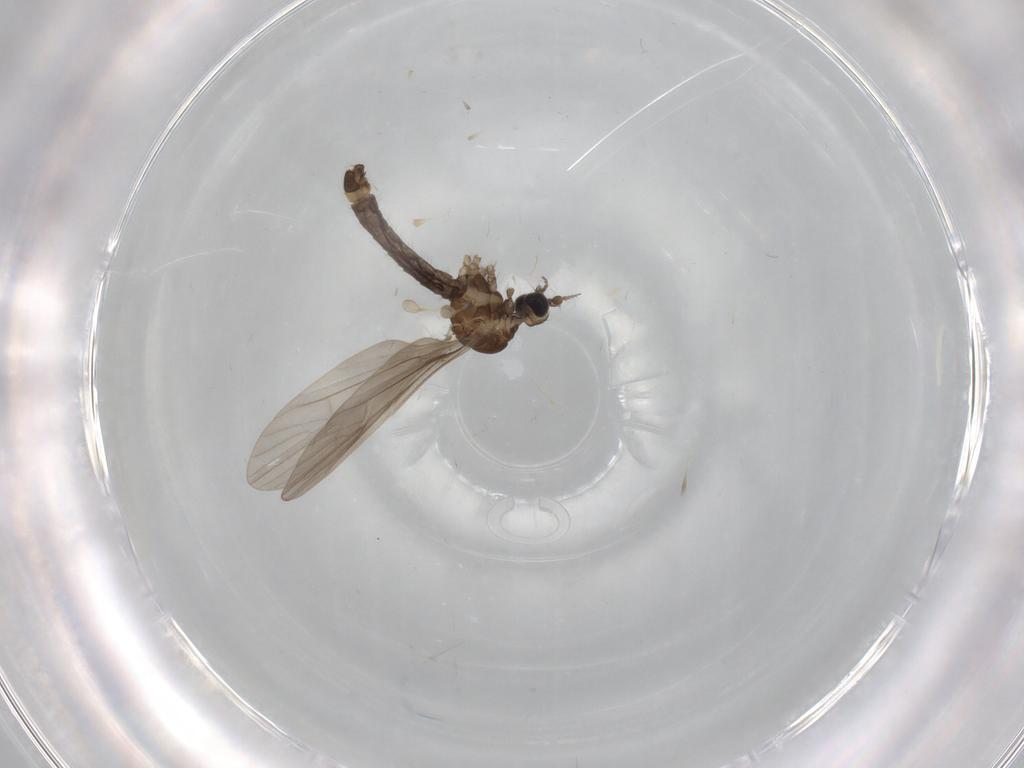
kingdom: Animalia
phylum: Arthropoda
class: Insecta
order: Diptera
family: Limoniidae
